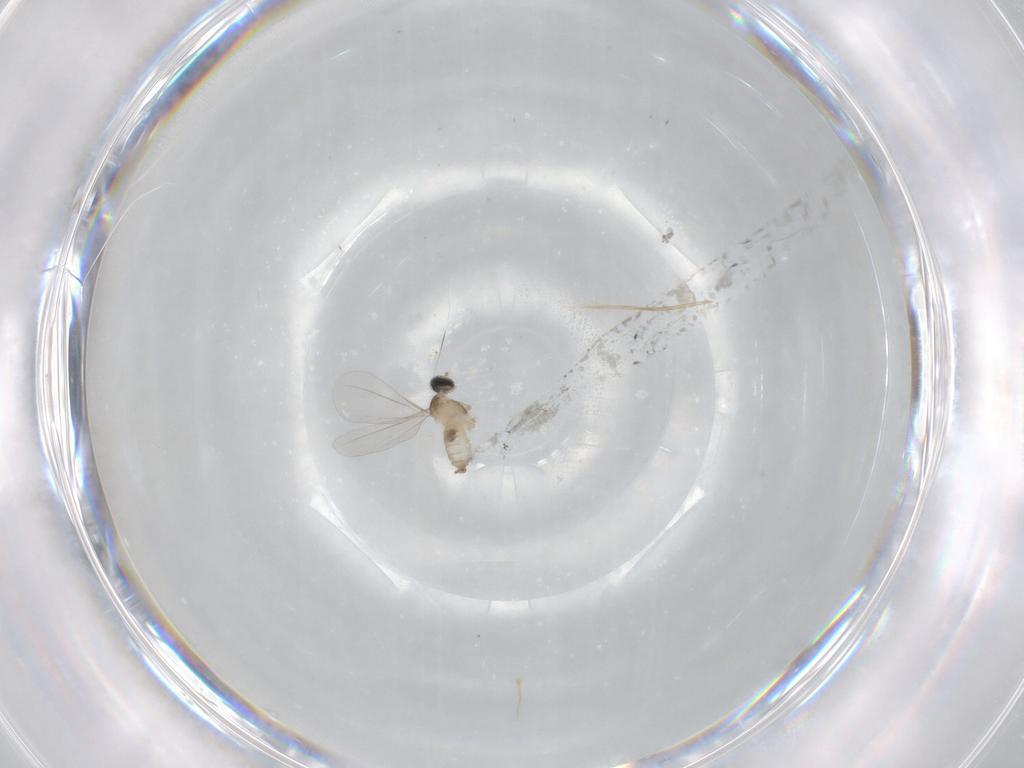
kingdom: Animalia
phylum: Arthropoda
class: Insecta
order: Diptera
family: Cecidomyiidae
